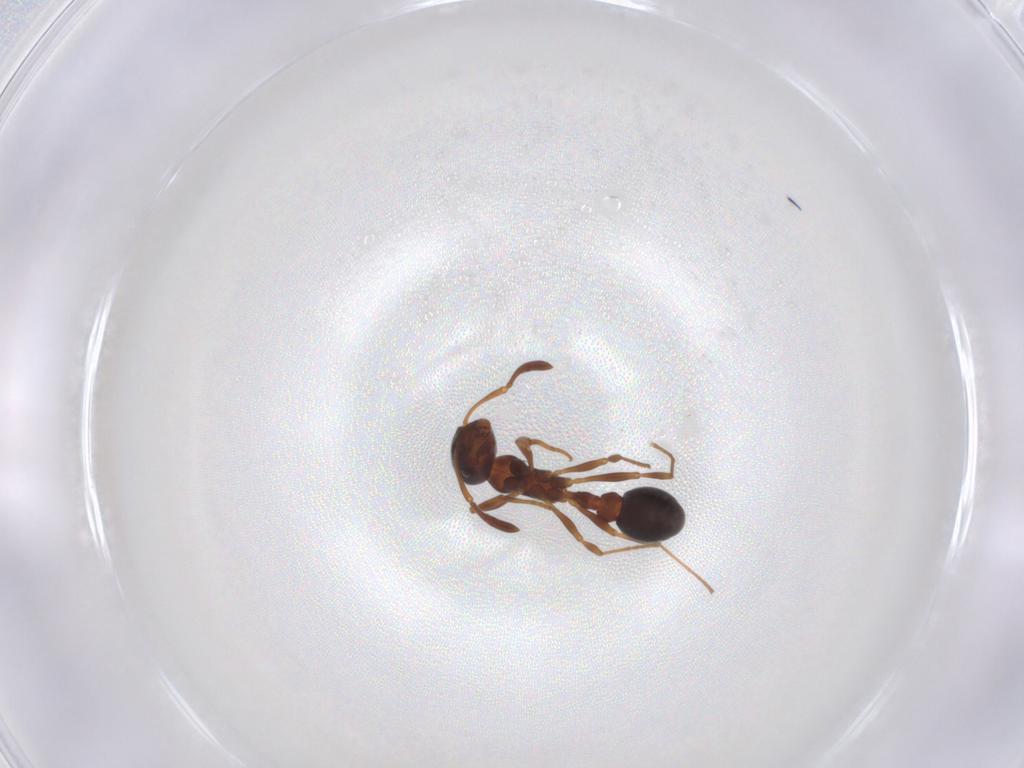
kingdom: Animalia
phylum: Arthropoda
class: Insecta
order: Hymenoptera
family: Formicidae
